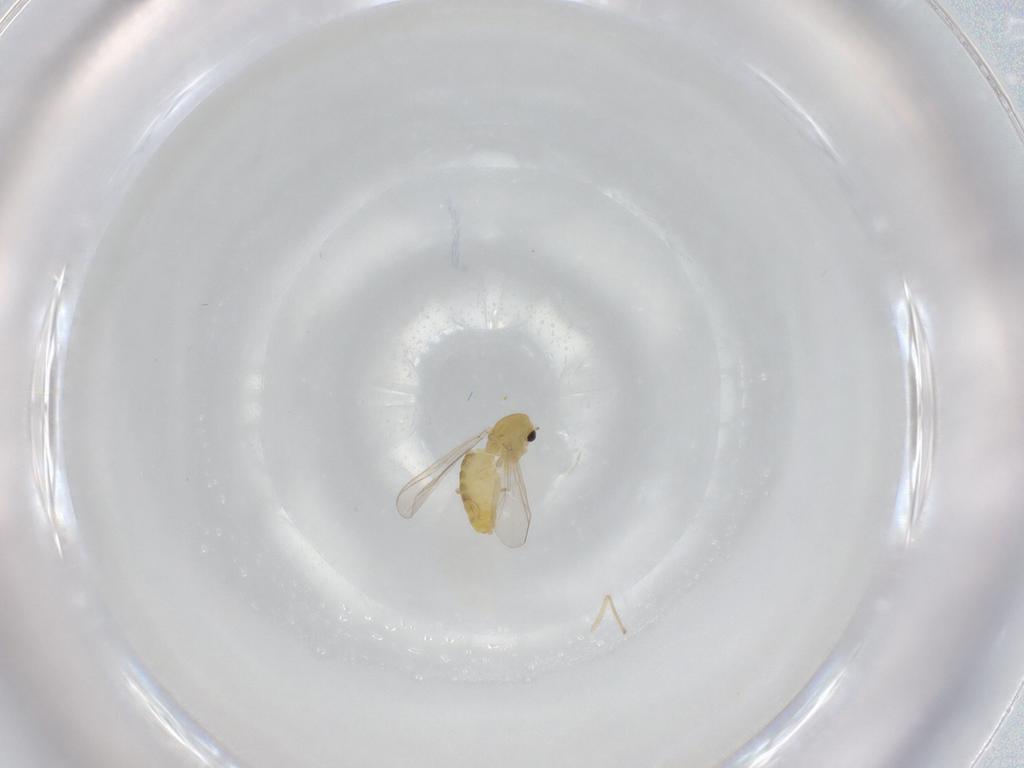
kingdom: Animalia
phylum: Arthropoda
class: Insecta
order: Diptera
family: Chironomidae
